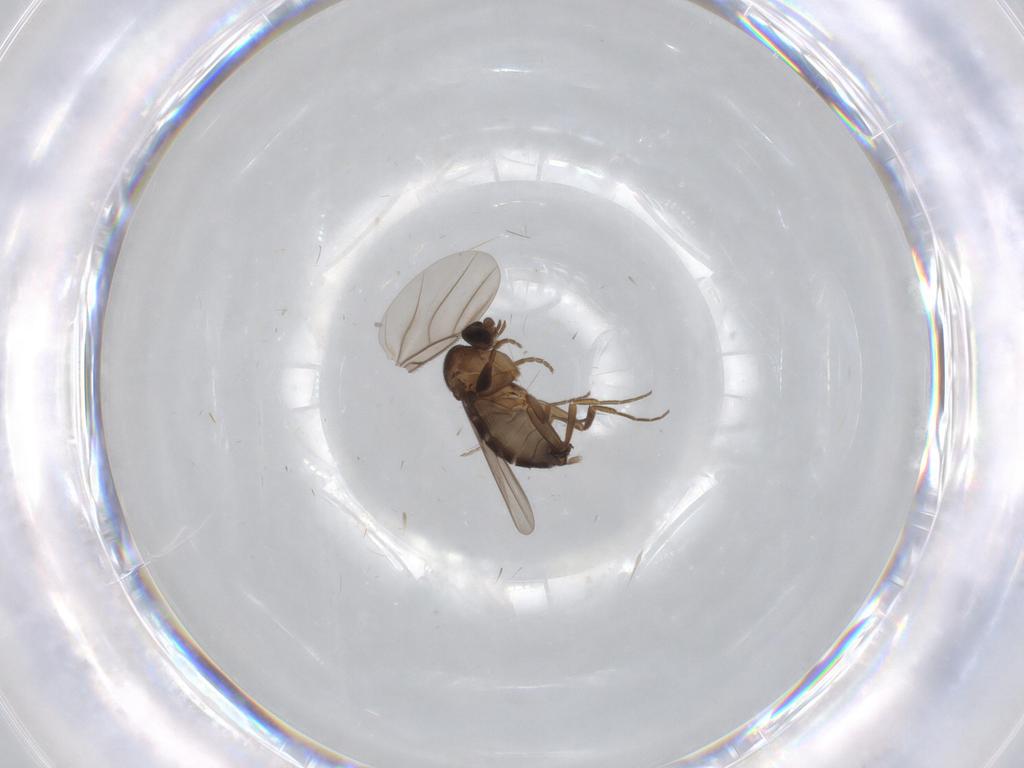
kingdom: Animalia
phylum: Arthropoda
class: Insecta
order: Diptera
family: Phoridae
